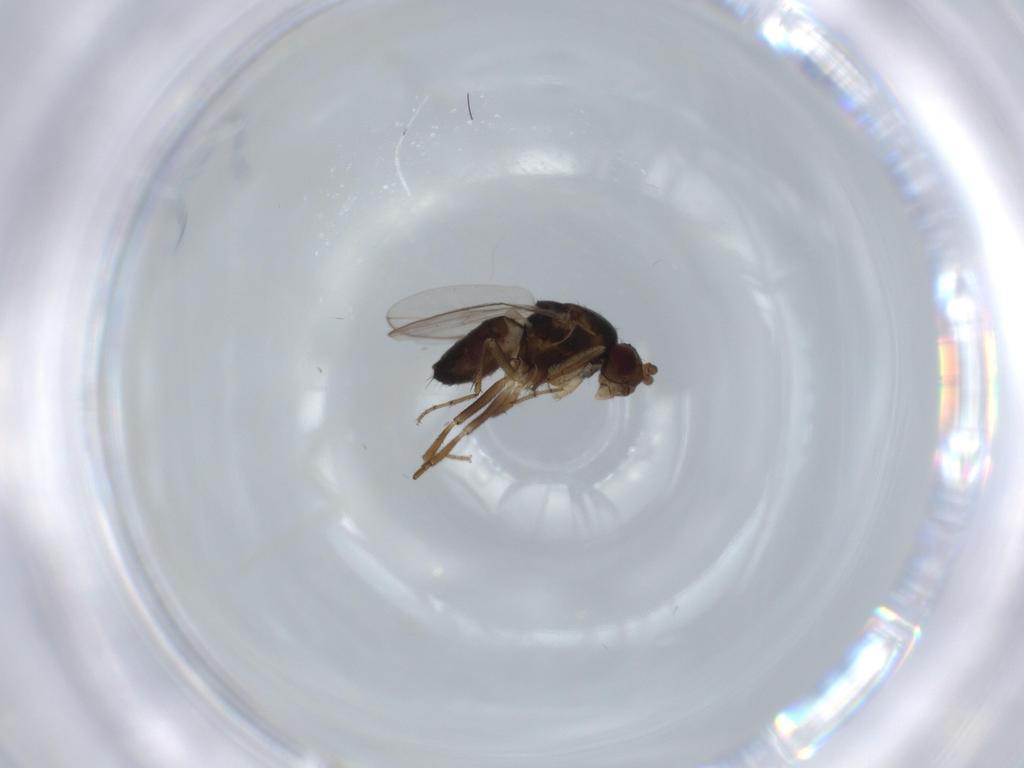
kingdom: Animalia
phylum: Arthropoda
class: Insecta
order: Diptera
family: Sphaeroceridae
